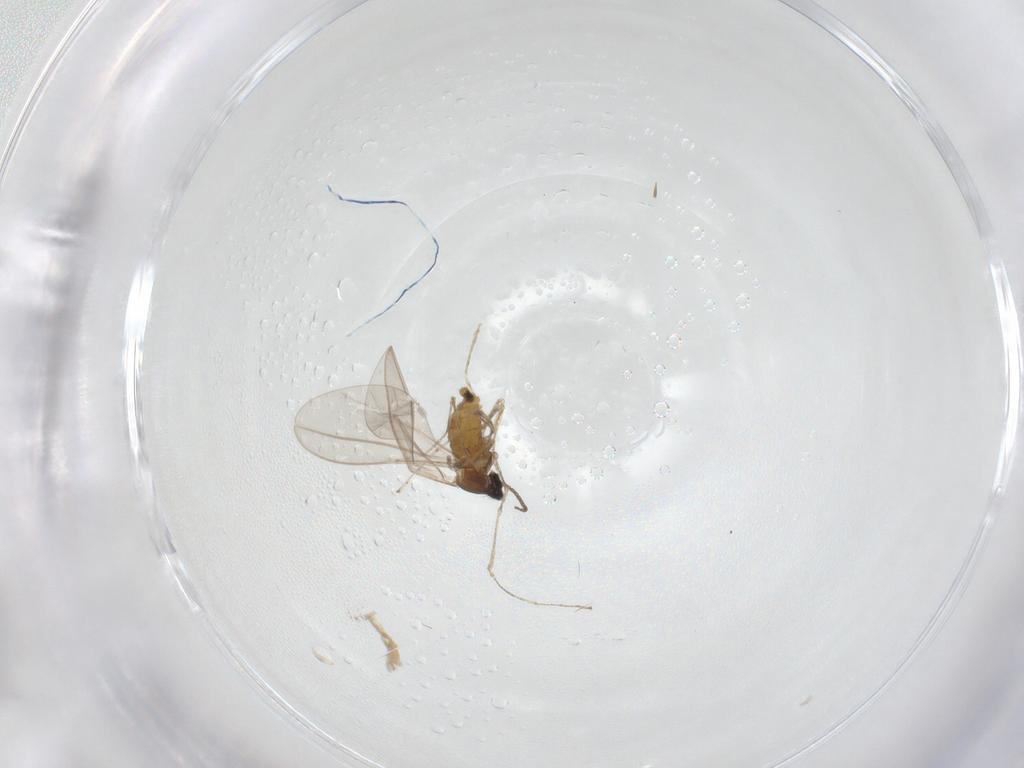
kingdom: Animalia
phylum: Arthropoda
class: Insecta
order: Diptera
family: Cecidomyiidae
